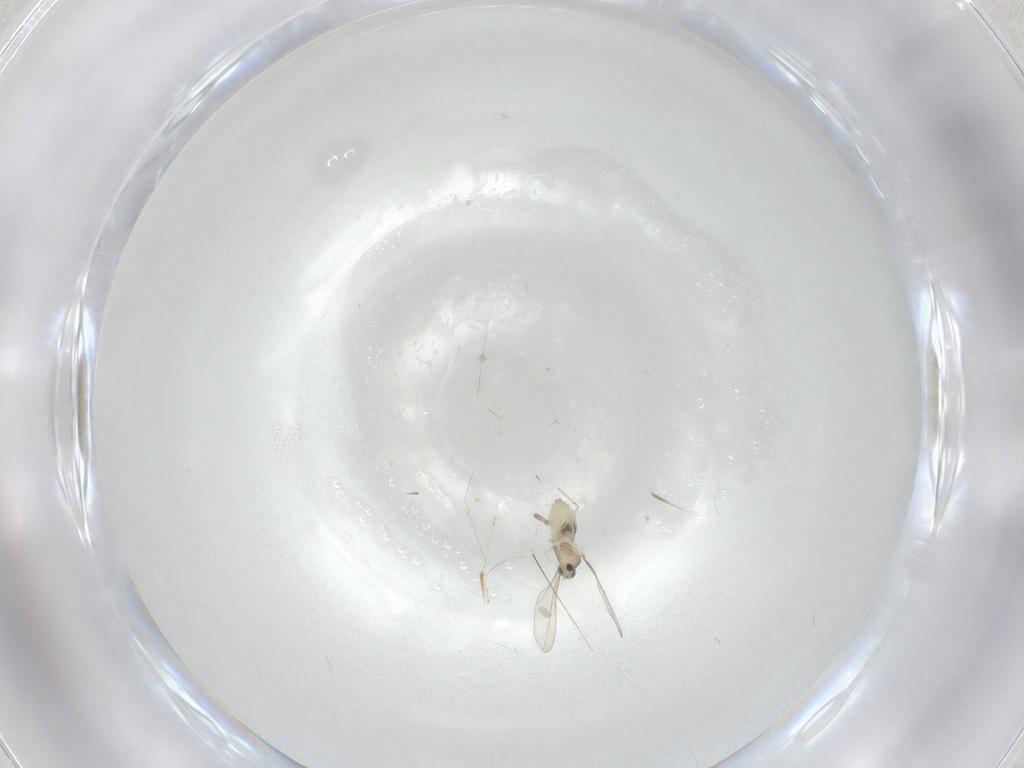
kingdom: Animalia
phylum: Arthropoda
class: Insecta
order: Diptera
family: Cecidomyiidae
